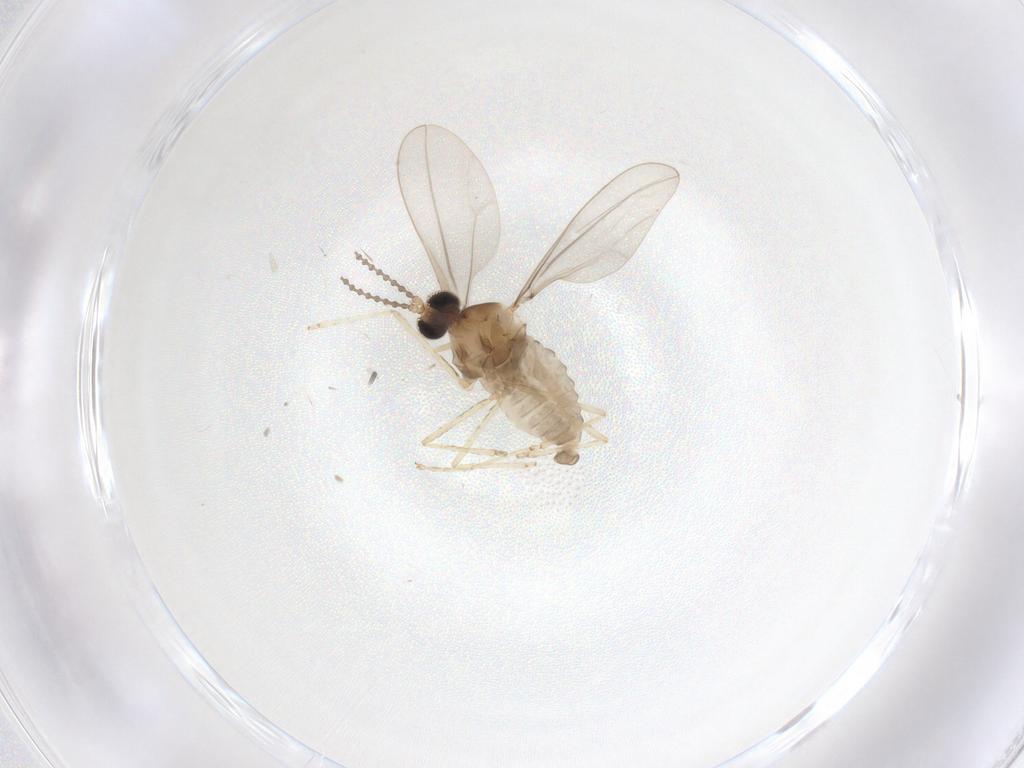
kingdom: Animalia
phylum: Arthropoda
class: Insecta
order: Diptera
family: Cecidomyiidae
